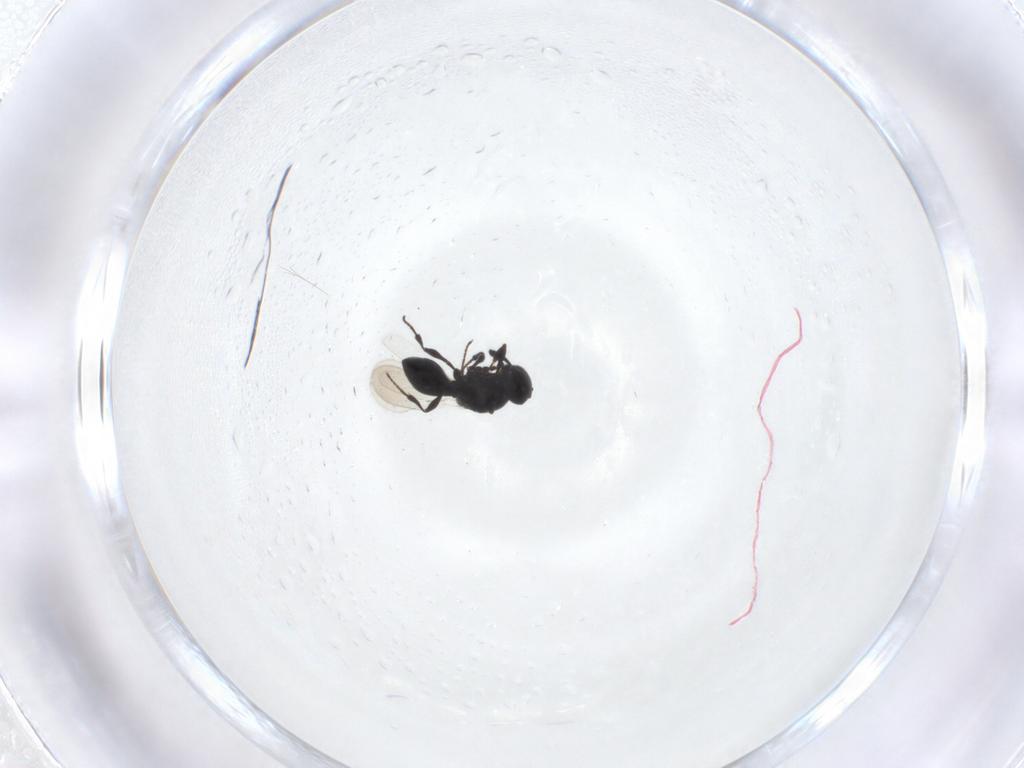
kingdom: Animalia
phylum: Arthropoda
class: Insecta
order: Hymenoptera
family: Platygastridae
